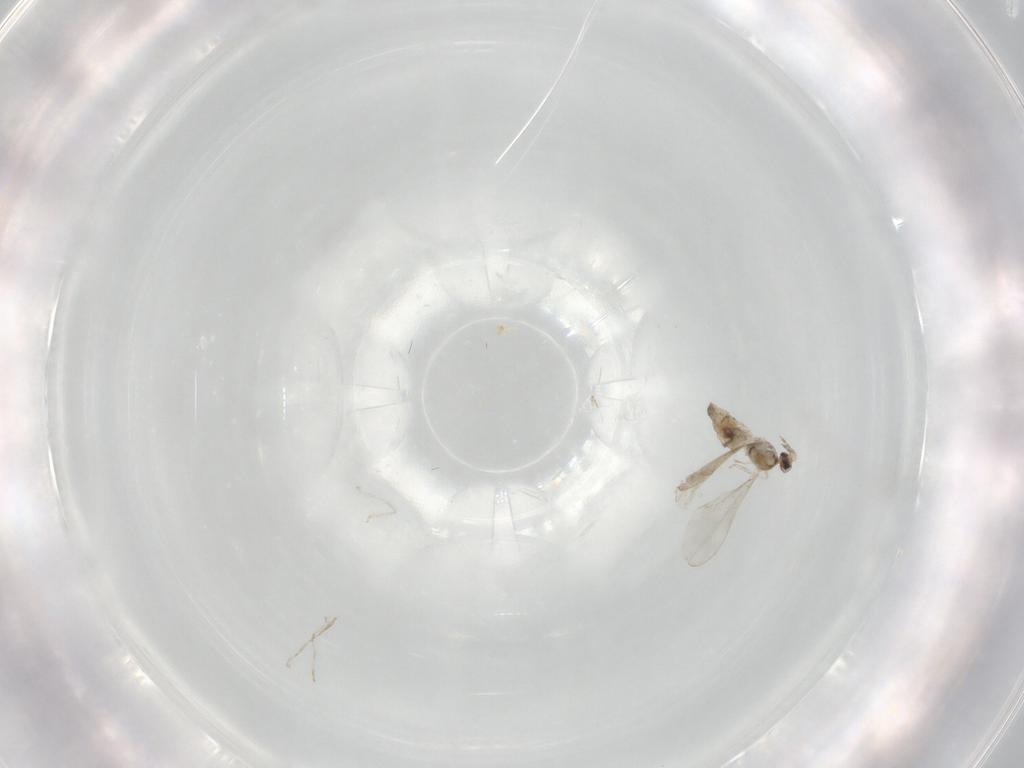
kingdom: Animalia
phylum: Arthropoda
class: Insecta
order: Diptera
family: Cecidomyiidae
